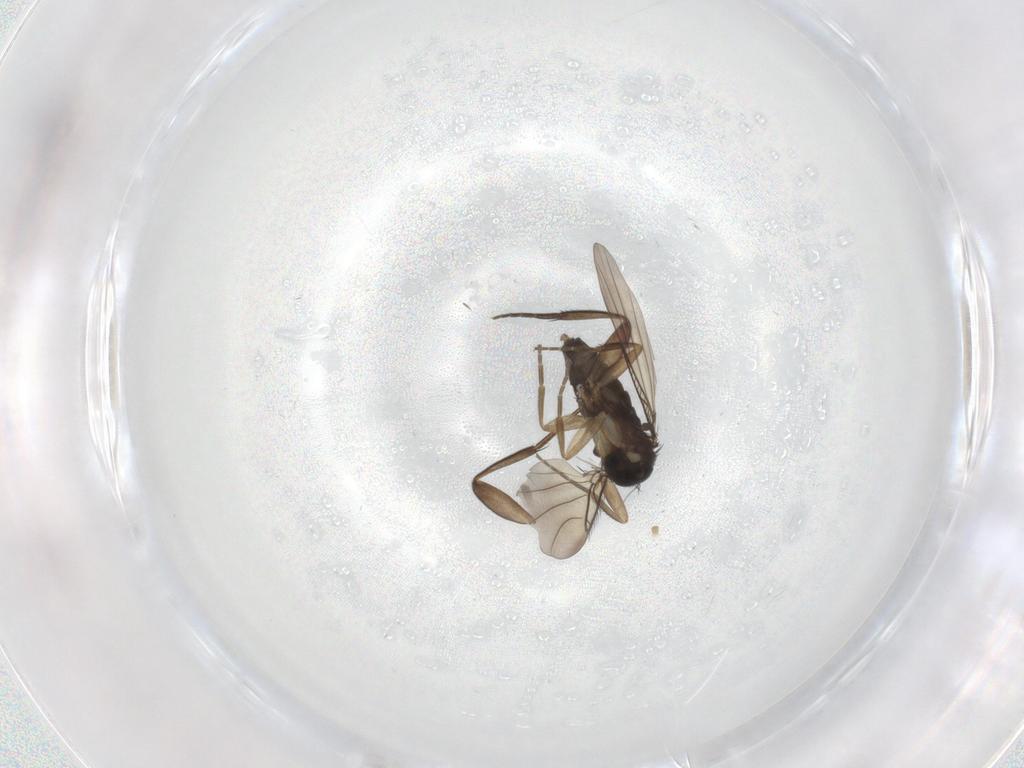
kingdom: Animalia
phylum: Arthropoda
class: Insecta
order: Diptera
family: Phoridae
